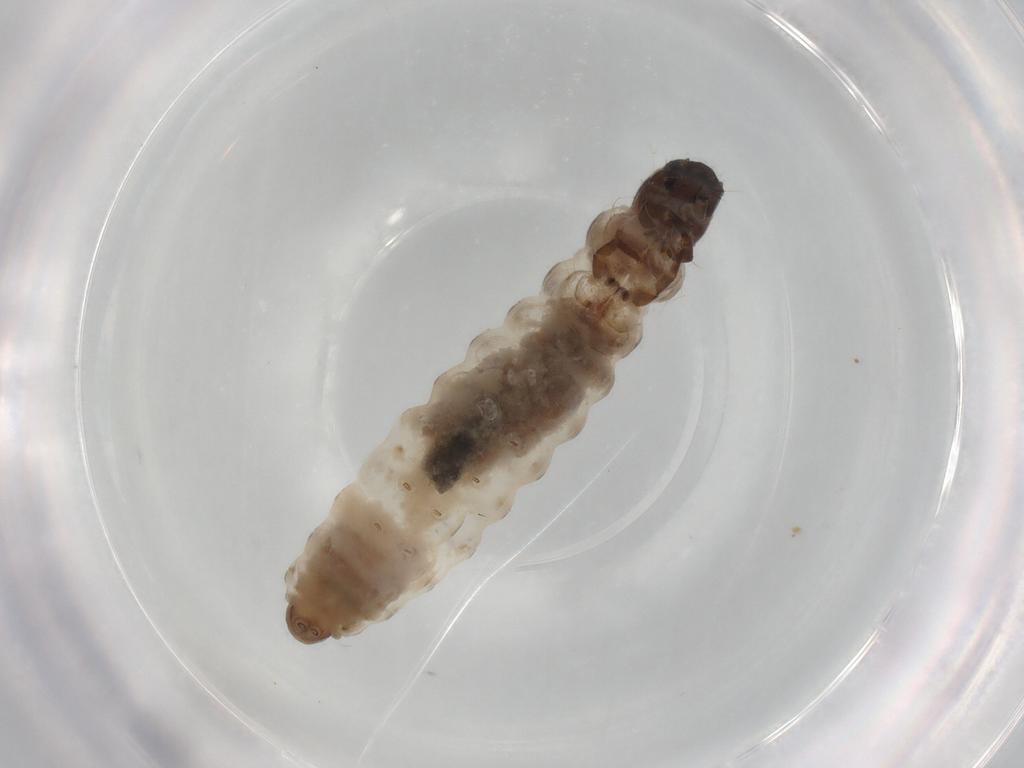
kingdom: Animalia
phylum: Arthropoda
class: Insecta
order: Lepidoptera
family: Psychidae
